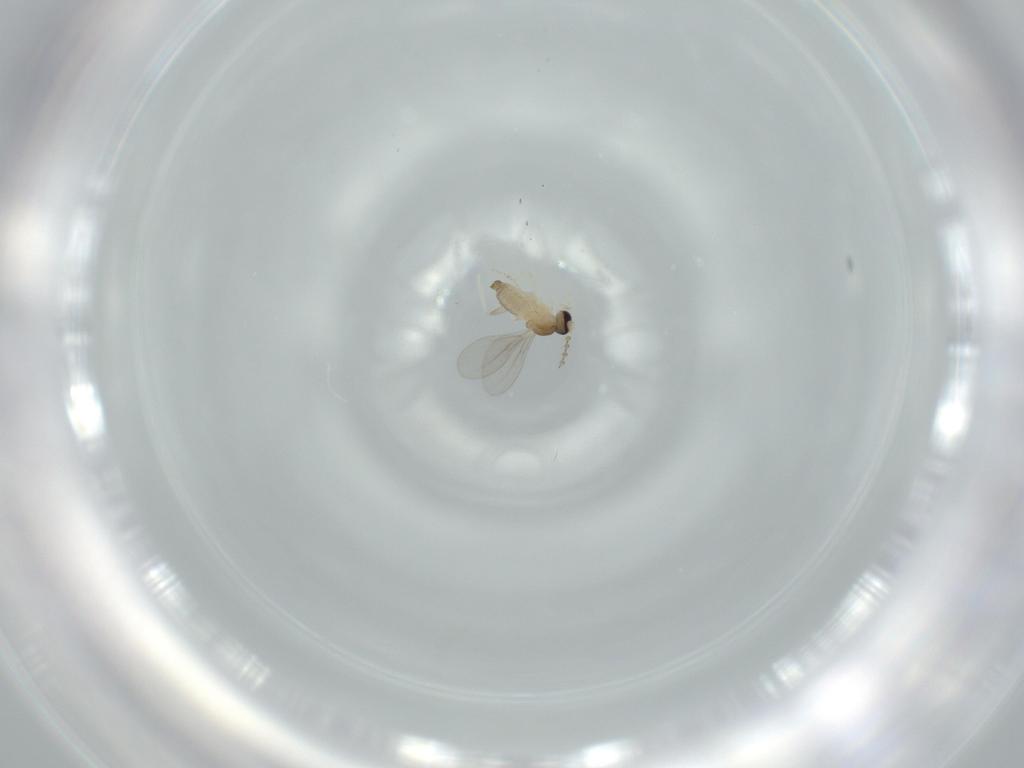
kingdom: Animalia
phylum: Arthropoda
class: Insecta
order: Diptera
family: Cecidomyiidae
